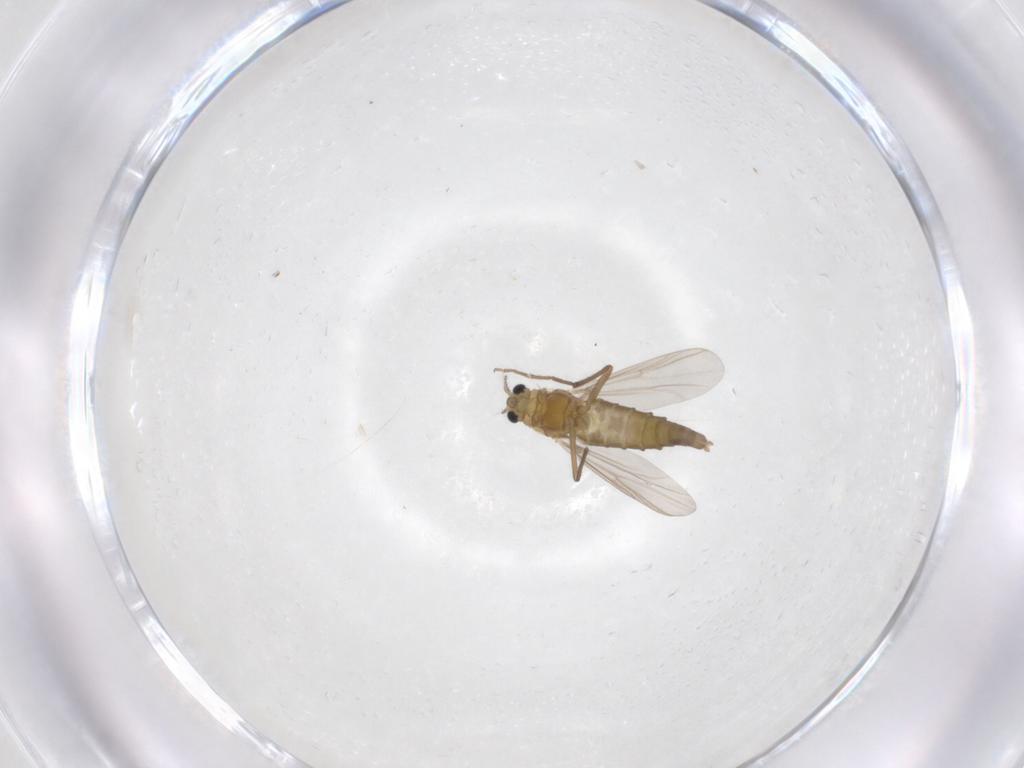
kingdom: Animalia
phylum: Arthropoda
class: Insecta
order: Diptera
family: Chironomidae
